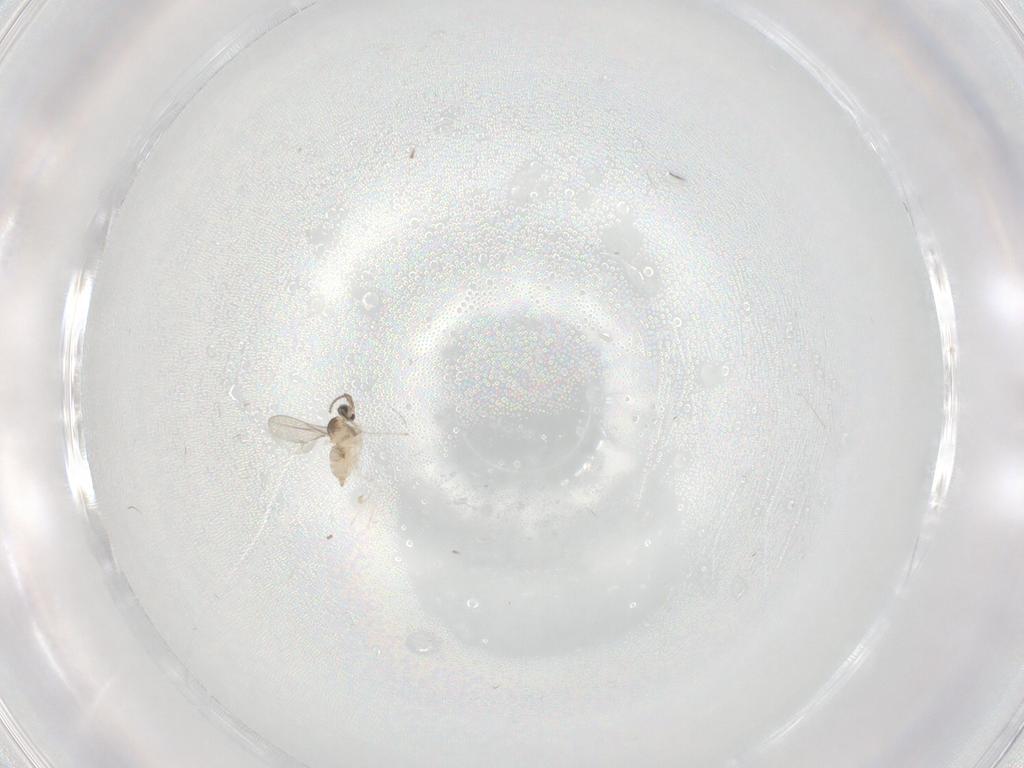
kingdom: Animalia
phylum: Arthropoda
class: Insecta
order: Diptera
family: Cecidomyiidae
